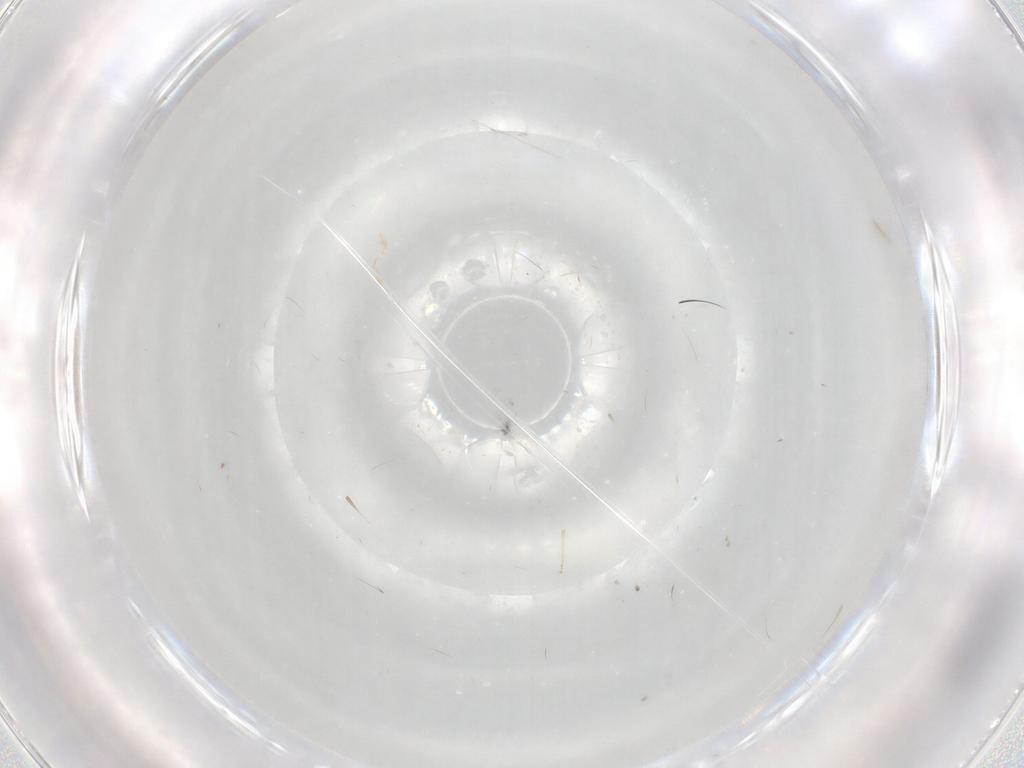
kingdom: Animalia
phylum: Arthropoda
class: Insecta
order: Diptera
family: Cecidomyiidae
